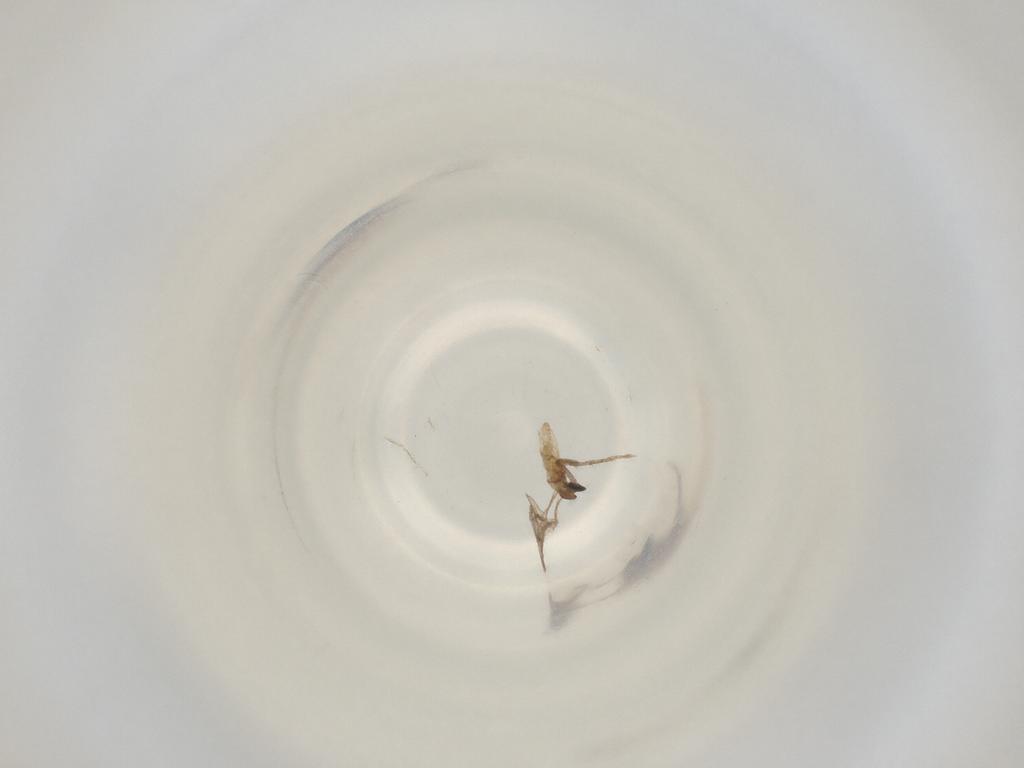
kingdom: Animalia
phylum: Arthropoda
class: Insecta
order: Diptera
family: Cecidomyiidae
